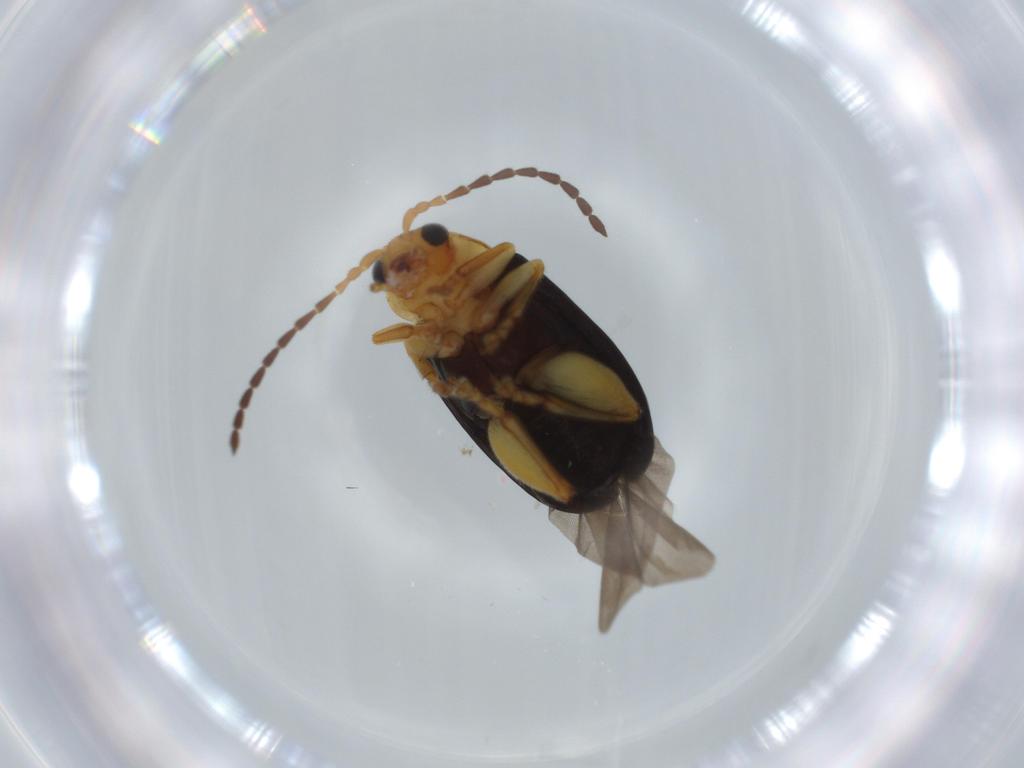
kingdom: Animalia
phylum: Arthropoda
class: Insecta
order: Coleoptera
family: Chrysomelidae
